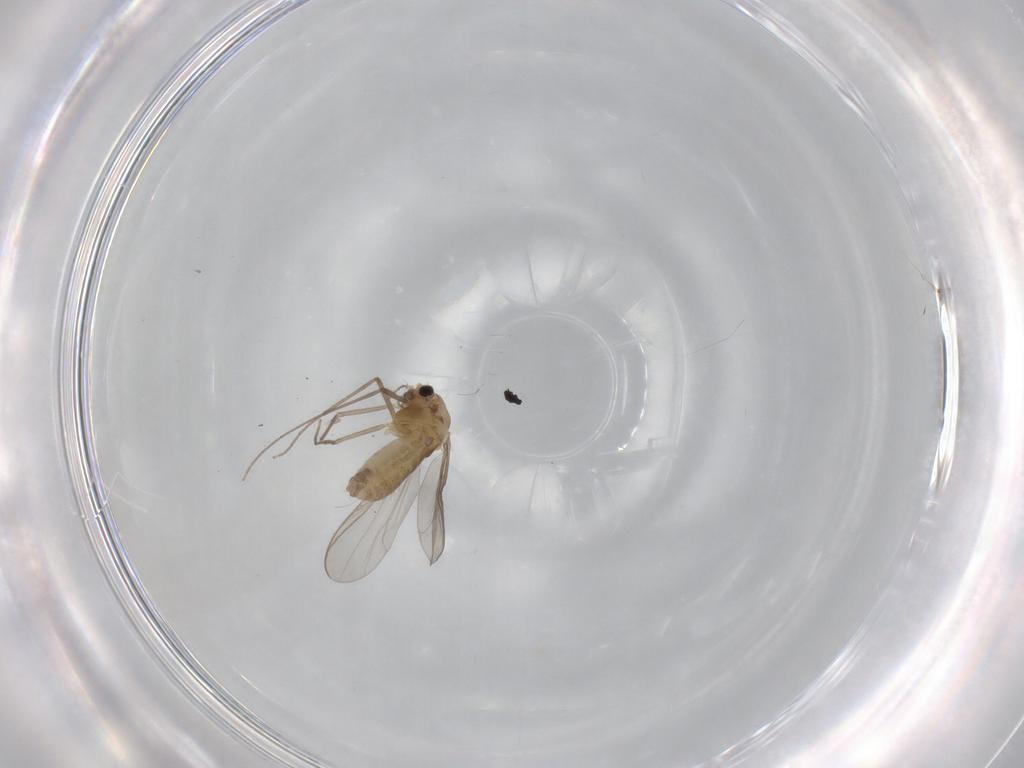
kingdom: Animalia
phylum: Arthropoda
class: Insecta
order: Diptera
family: Chironomidae
